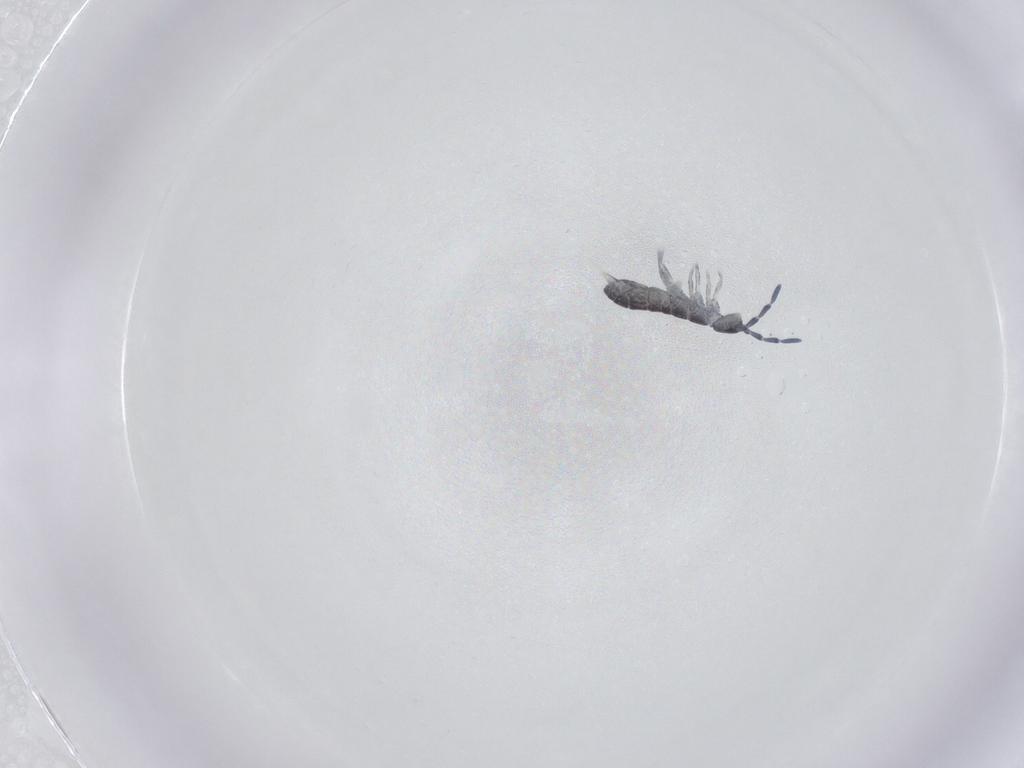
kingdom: Animalia
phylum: Arthropoda
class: Collembola
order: Entomobryomorpha
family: Isotomidae
